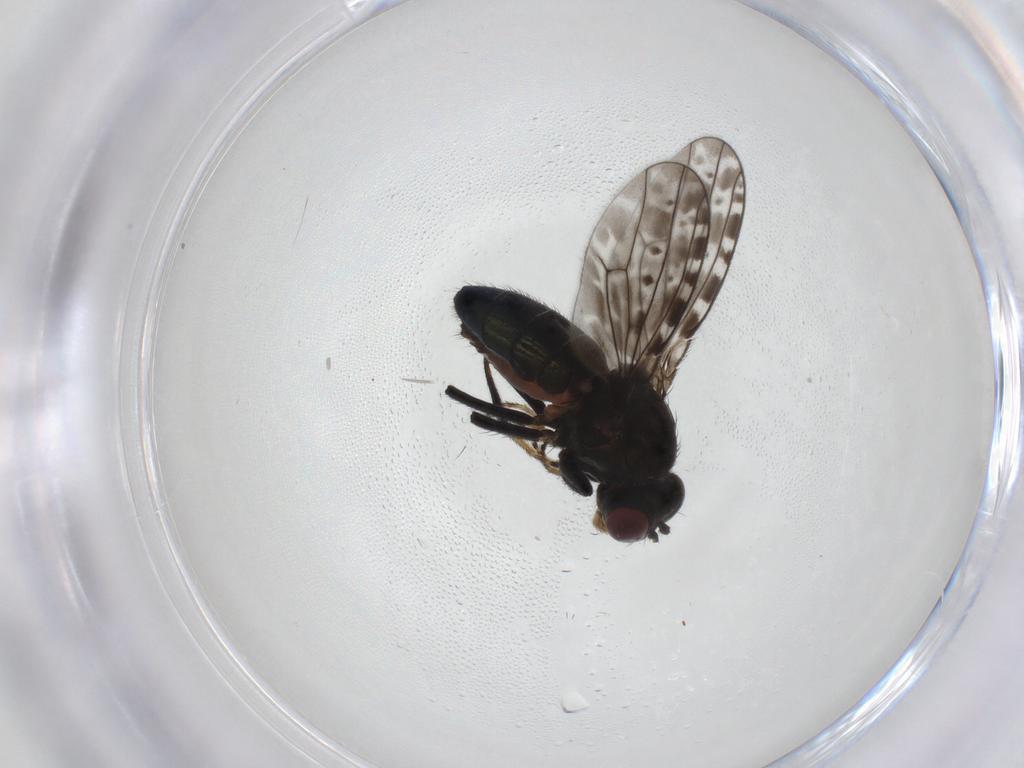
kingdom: Animalia
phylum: Arthropoda
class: Insecta
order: Diptera
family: Ephydridae
